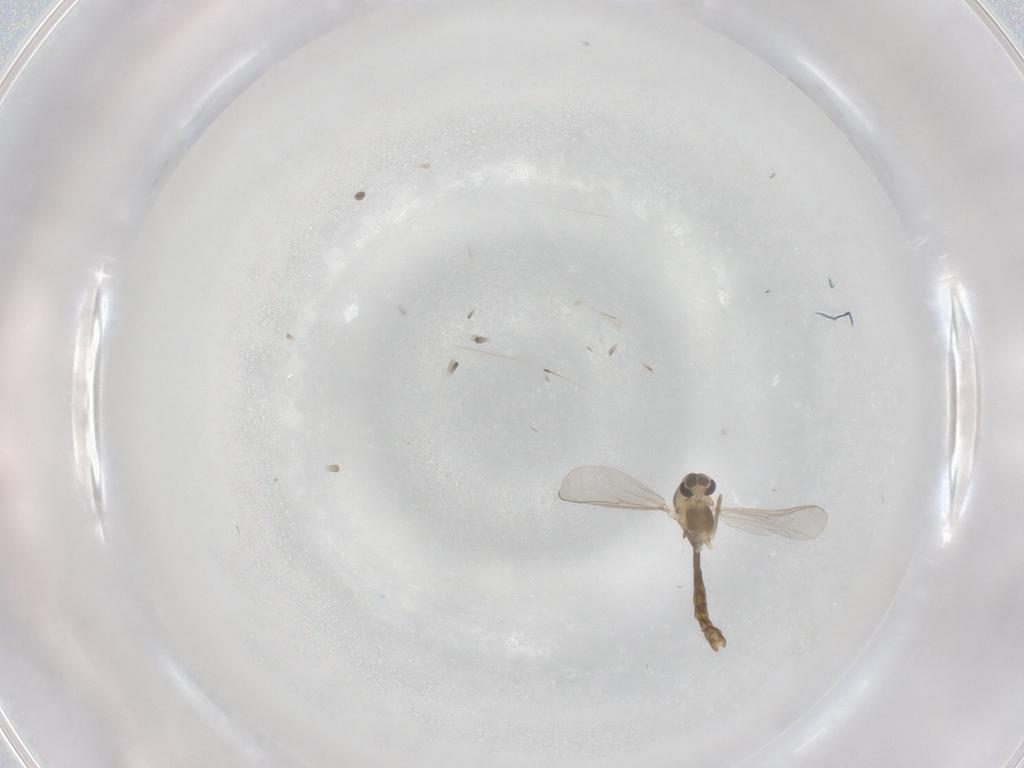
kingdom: Animalia
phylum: Arthropoda
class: Insecta
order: Diptera
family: Chironomidae
